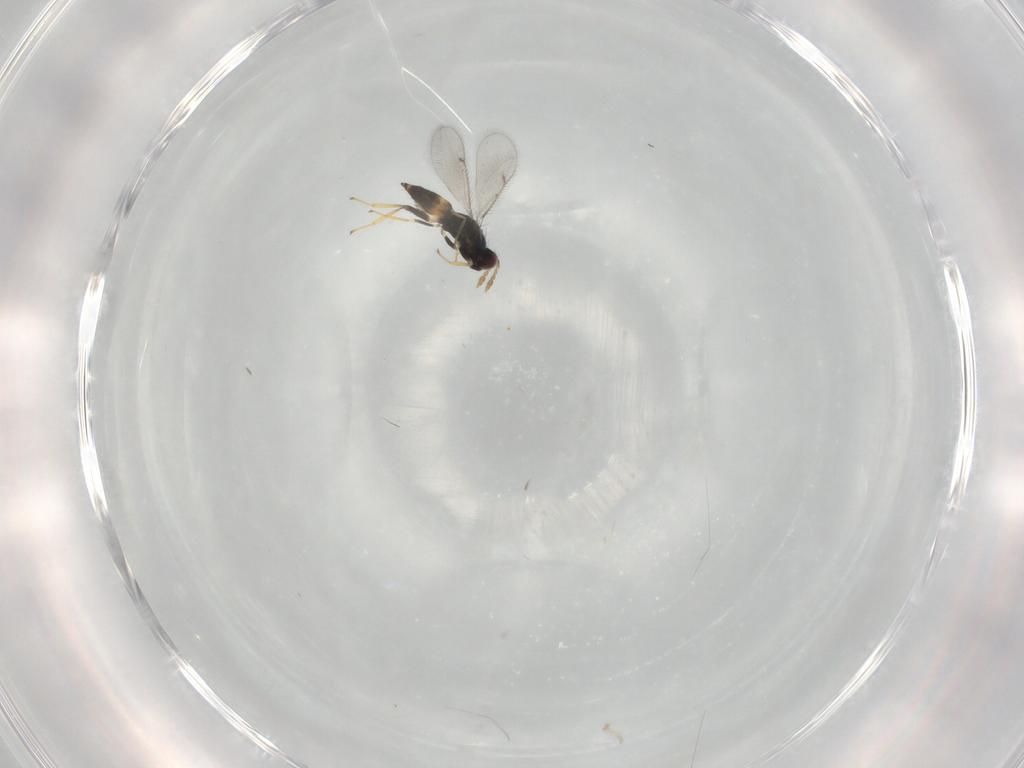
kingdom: Animalia
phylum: Arthropoda
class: Insecta
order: Hymenoptera
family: Eulophidae
